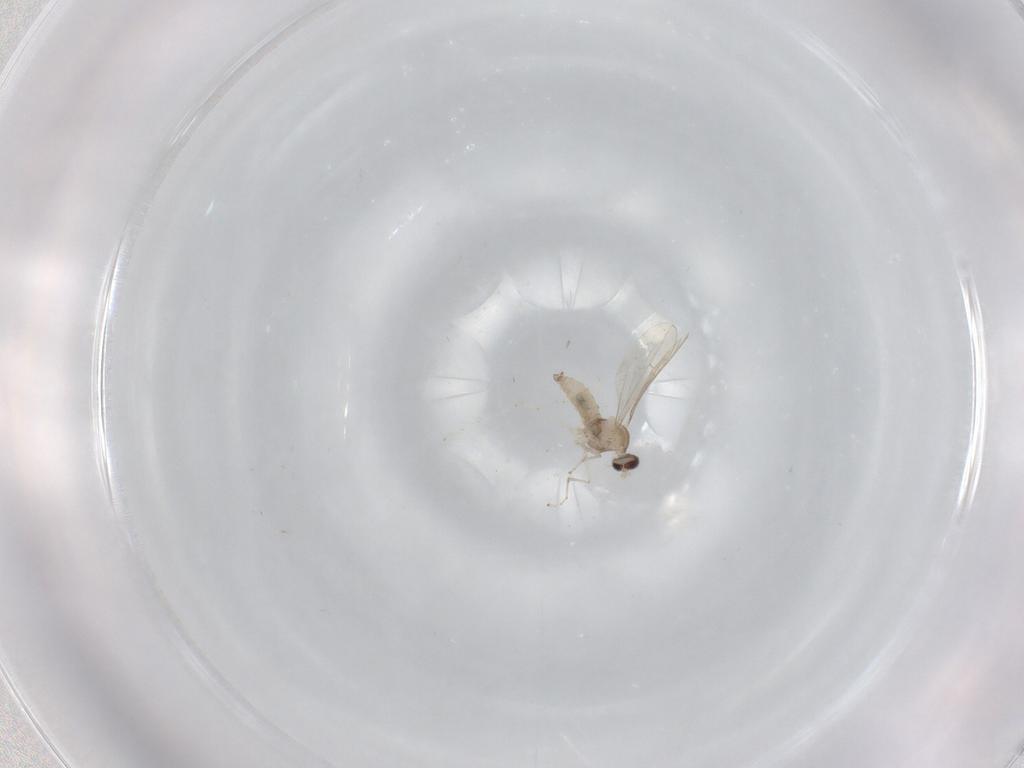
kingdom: Animalia
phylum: Arthropoda
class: Insecta
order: Diptera
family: Cecidomyiidae
